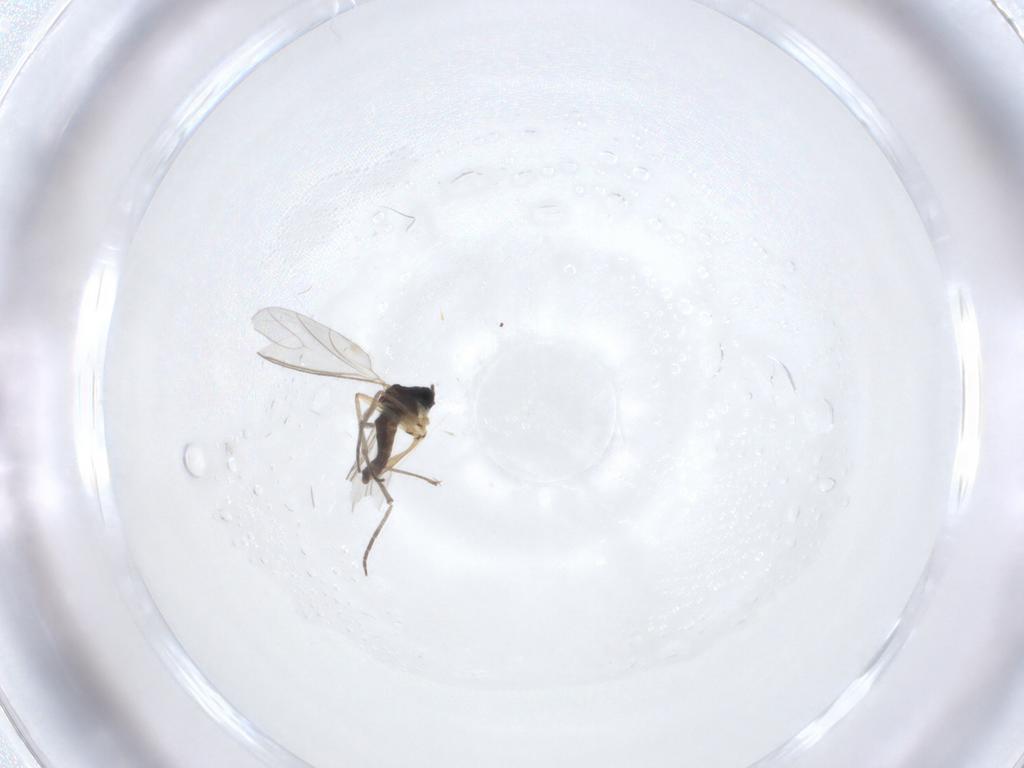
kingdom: Animalia
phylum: Arthropoda
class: Insecta
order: Diptera
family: Sciaridae
